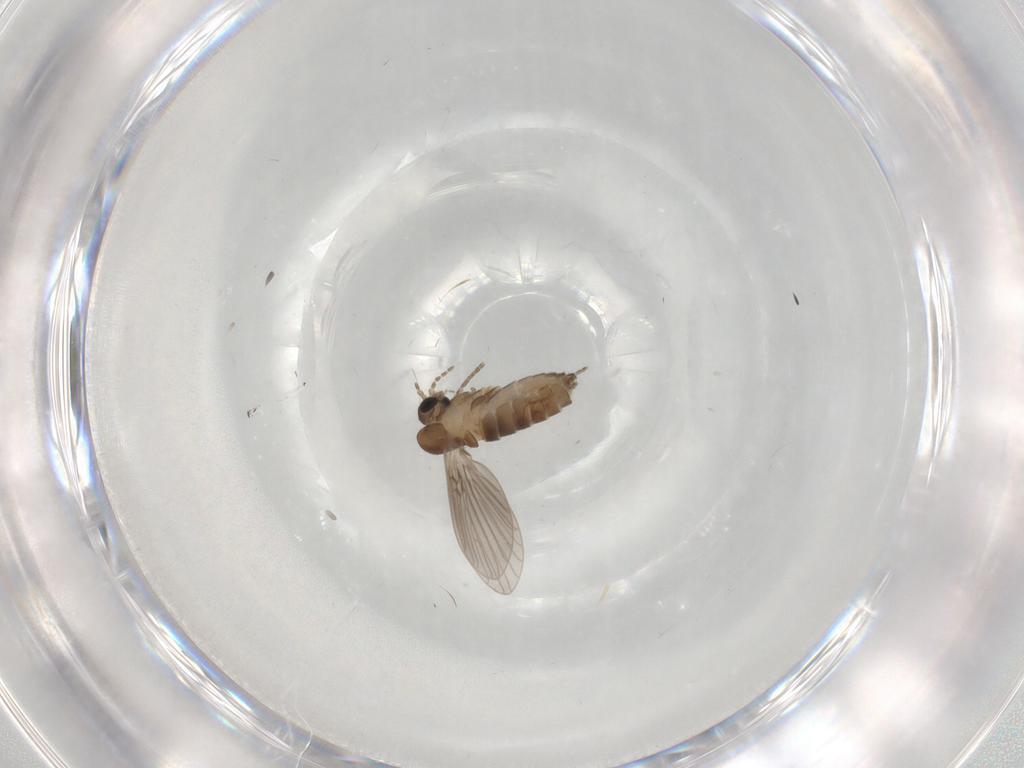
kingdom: Animalia
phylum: Arthropoda
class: Insecta
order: Diptera
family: Psychodidae
